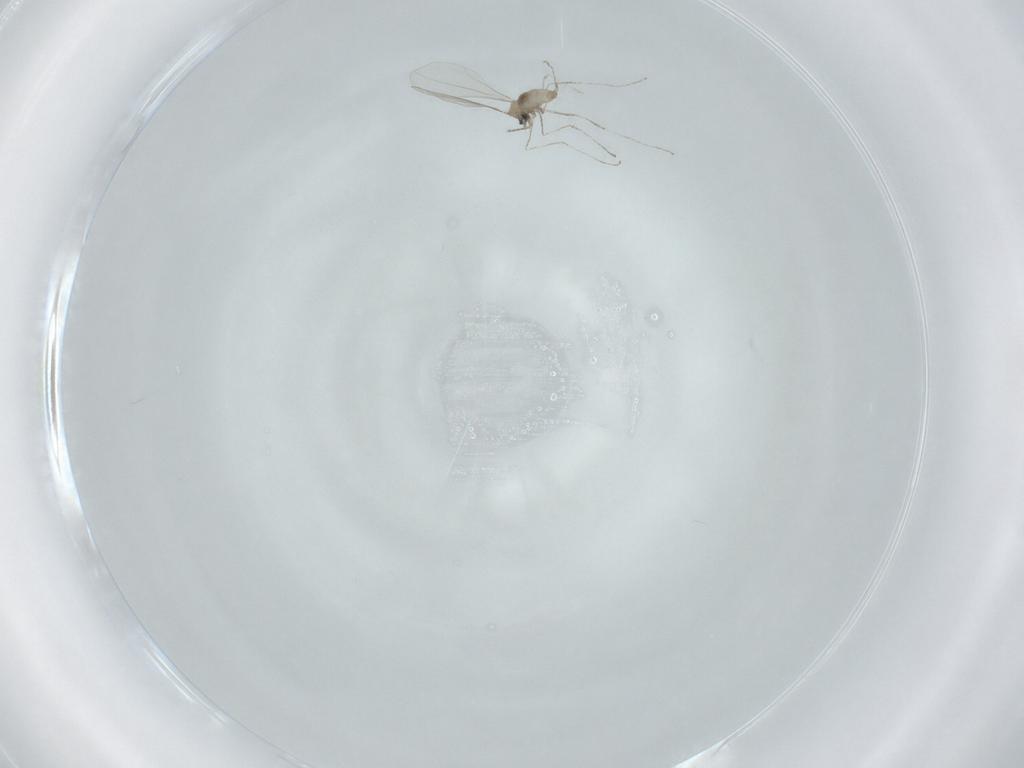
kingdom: Animalia
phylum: Arthropoda
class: Insecta
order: Diptera
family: Cecidomyiidae
